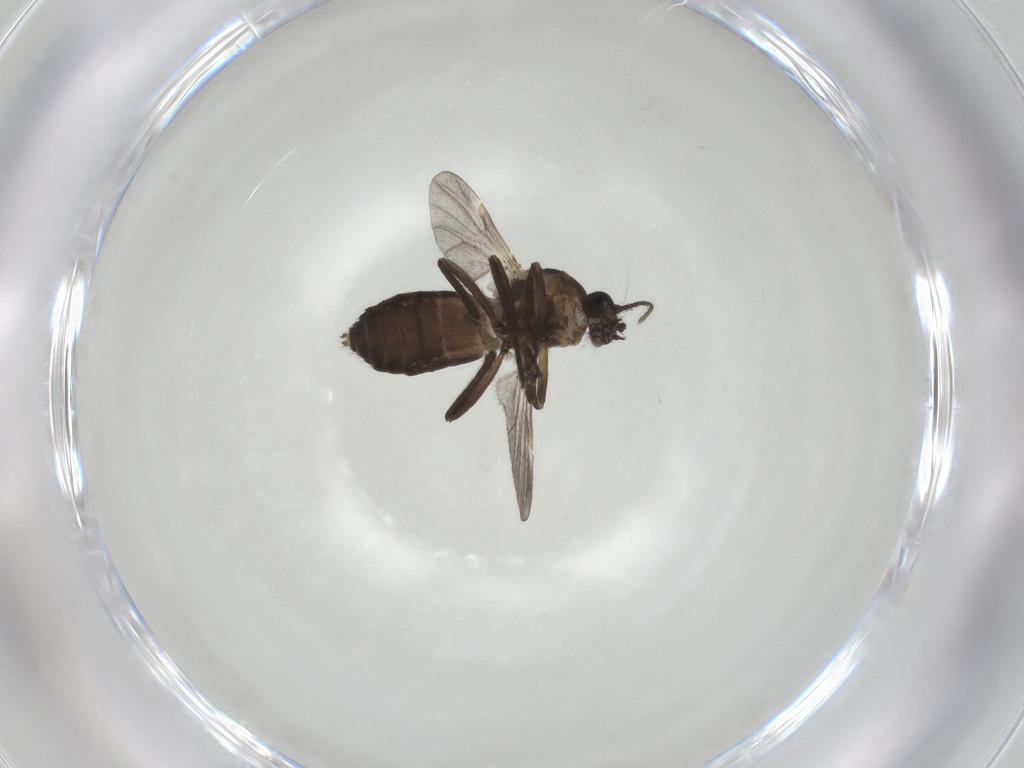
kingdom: Animalia
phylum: Arthropoda
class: Insecta
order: Diptera
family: Ceratopogonidae
